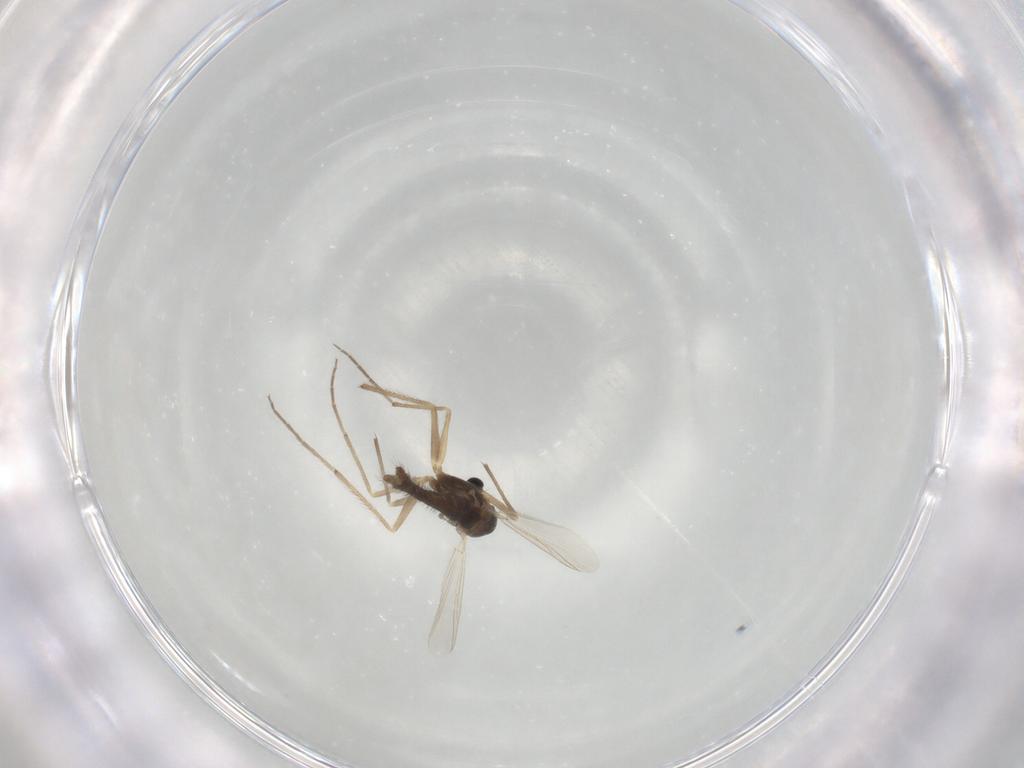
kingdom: Animalia
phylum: Arthropoda
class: Insecta
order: Diptera
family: Chironomidae
